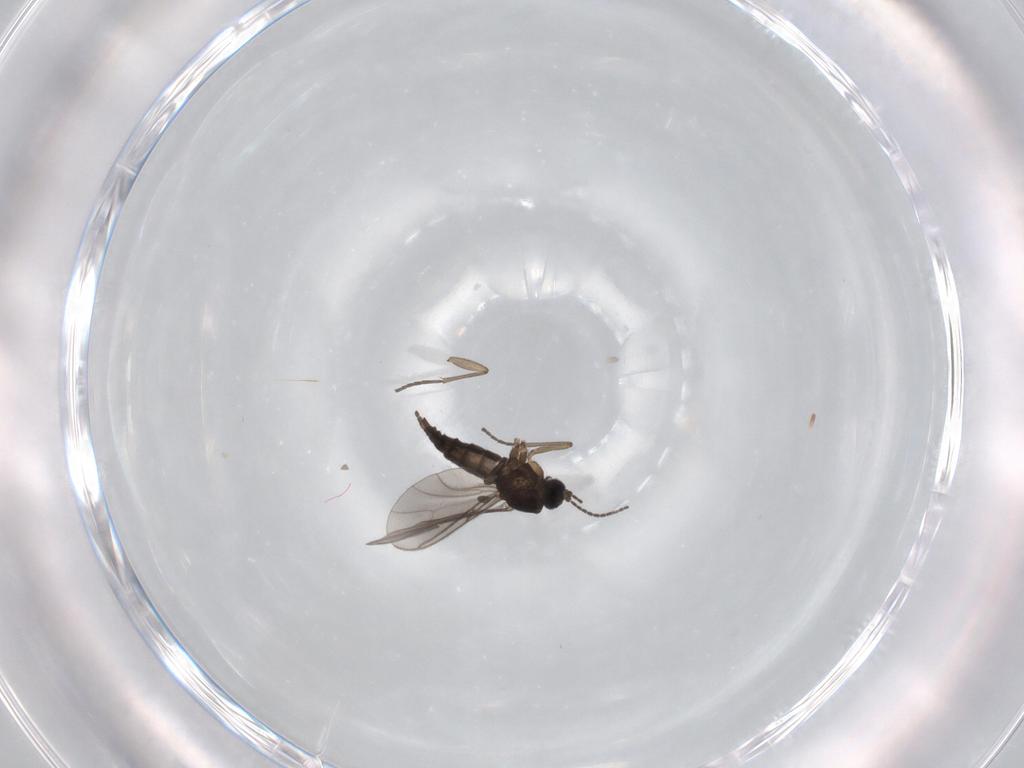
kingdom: Animalia
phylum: Arthropoda
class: Insecta
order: Diptera
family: Sciaridae
